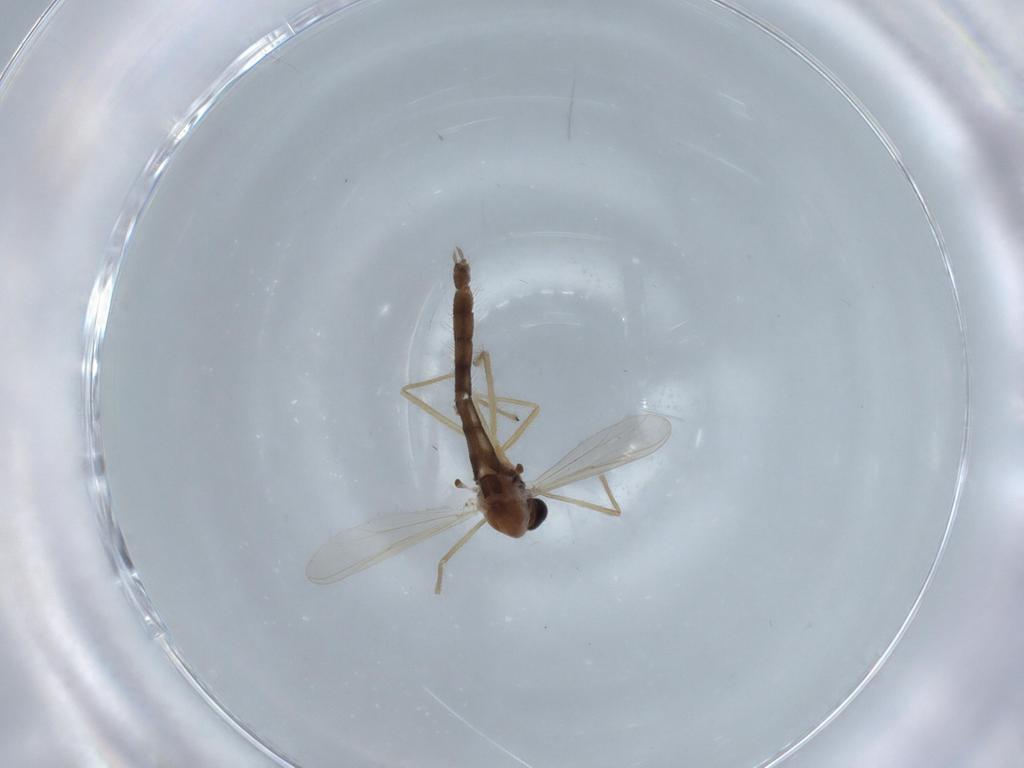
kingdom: Animalia
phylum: Arthropoda
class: Insecta
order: Diptera
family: Chironomidae
